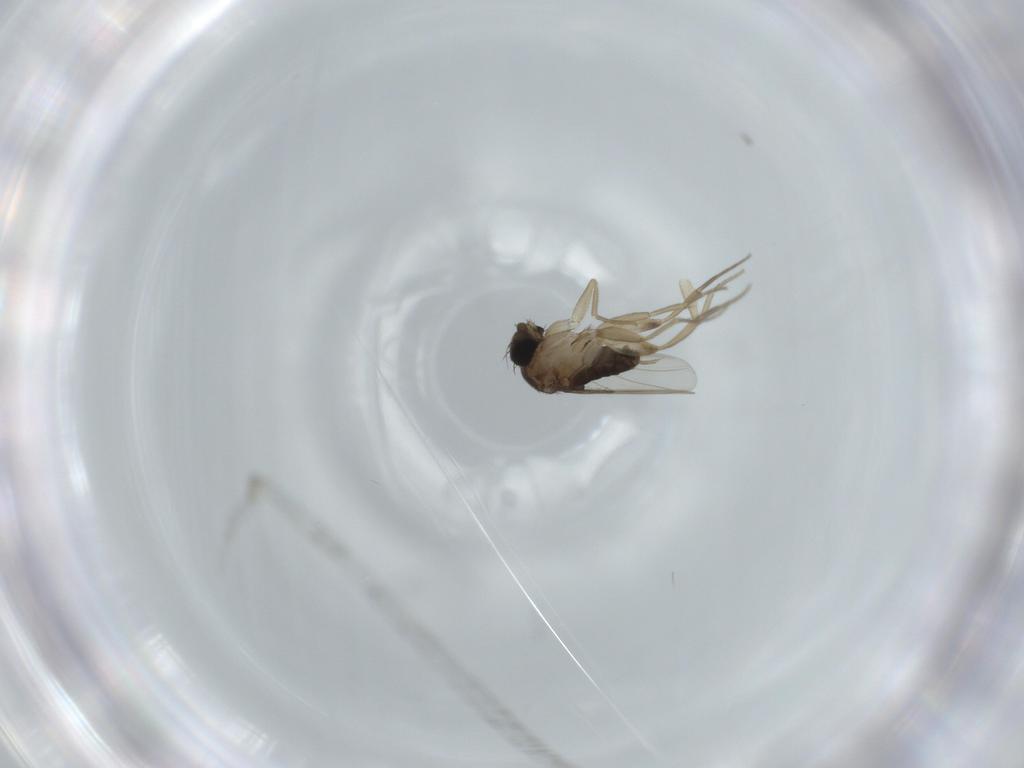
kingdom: Animalia
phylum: Arthropoda
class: Insecta
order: Diptera
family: Phoridae
